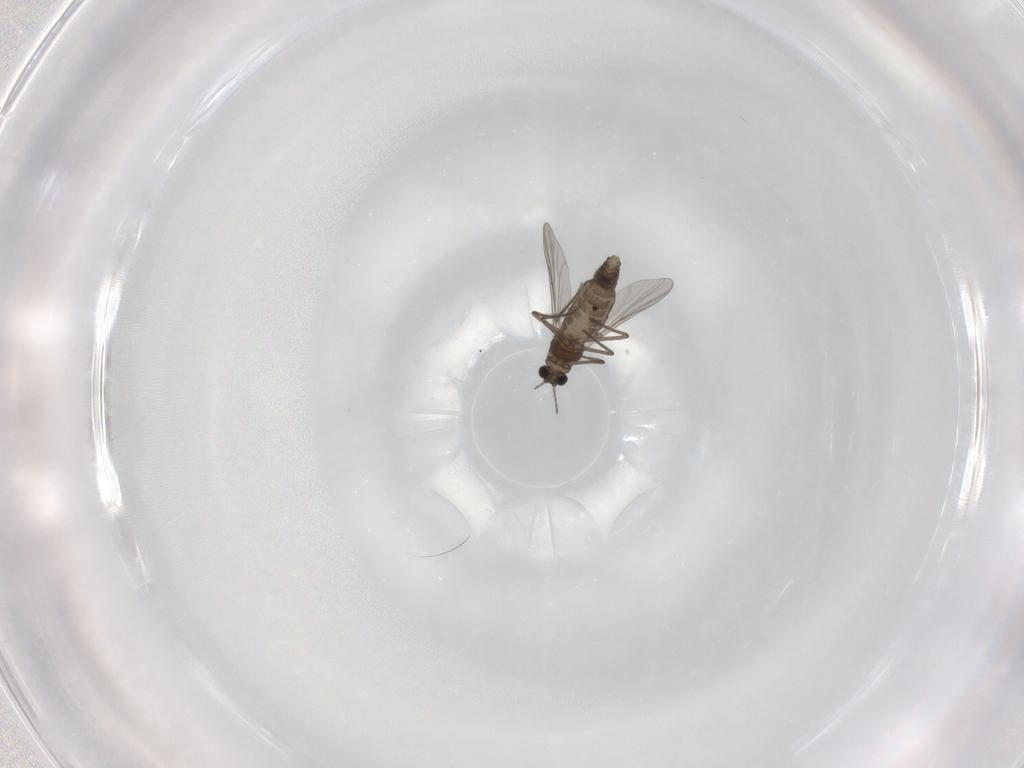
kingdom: Animalia
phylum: Arthropoda
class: Insecta
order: Diptera
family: Chironomidae
